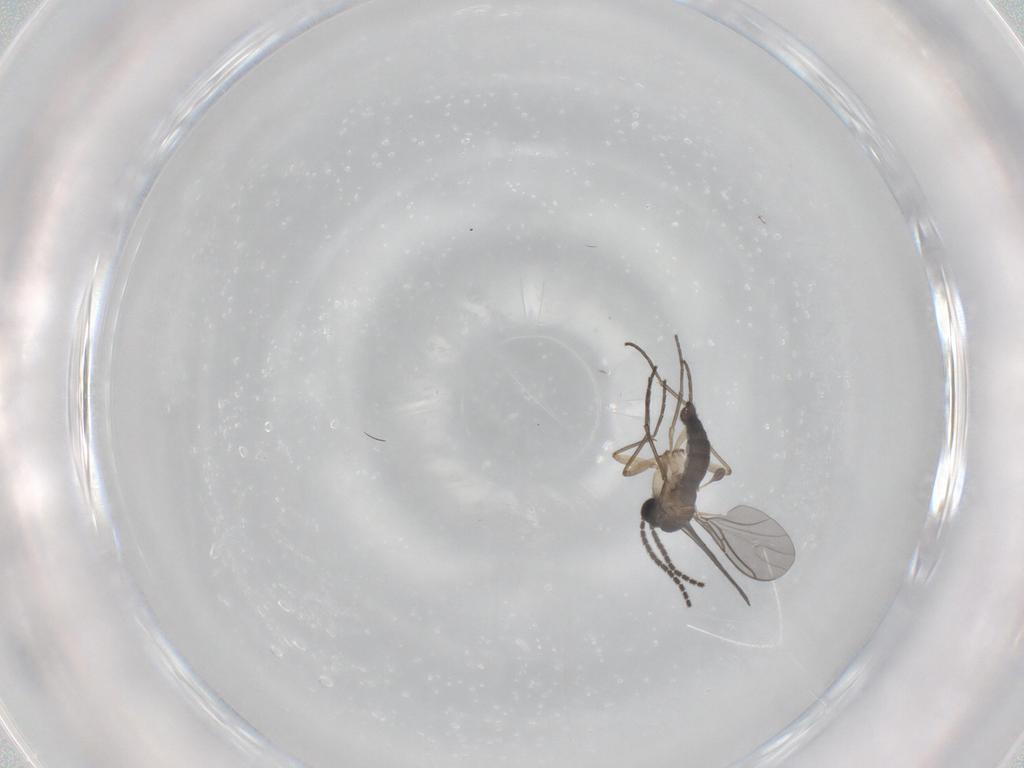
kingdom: Animalia
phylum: Arthropoda
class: Insecta
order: Diptera
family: Sciaridae
